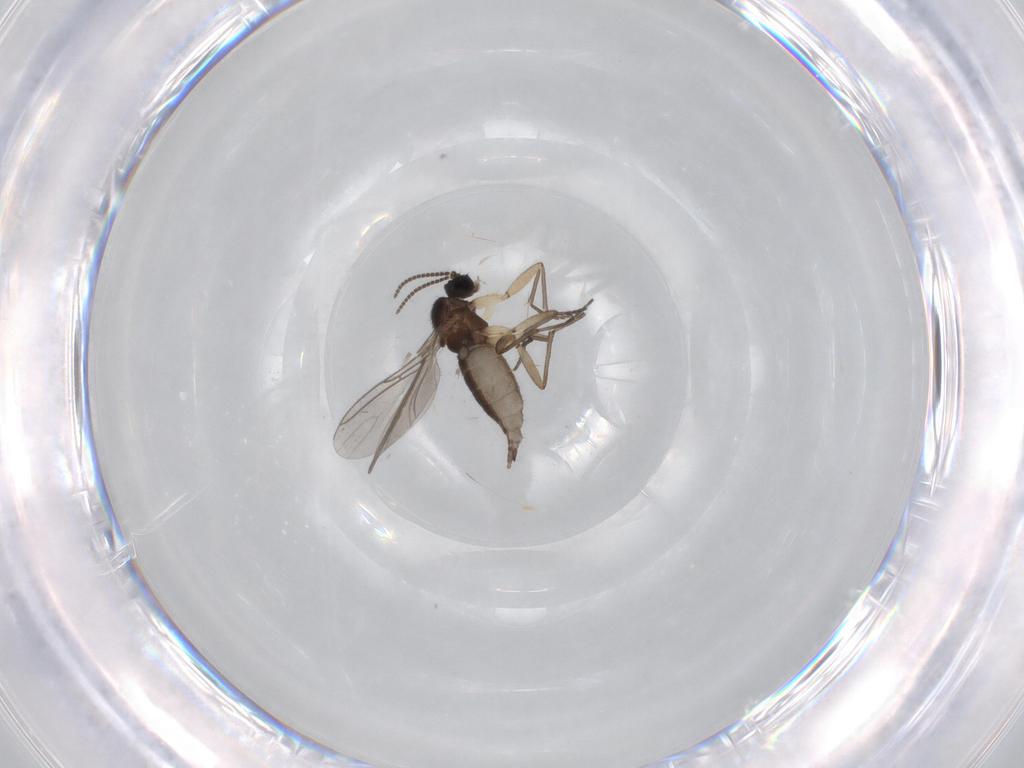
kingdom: Animalia
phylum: Arthropoda
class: Insecta
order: Diptera
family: Sciaridae
